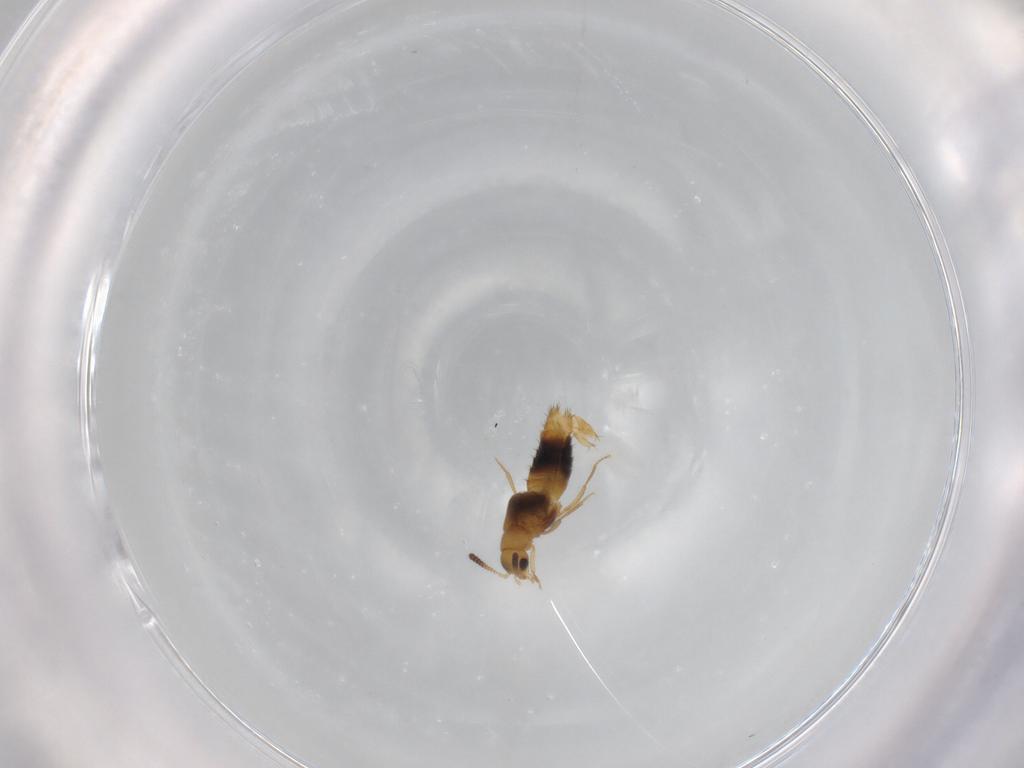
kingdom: Animalia
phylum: Arthropoda
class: Insecta
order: Coleoptera
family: Staphylinidae
